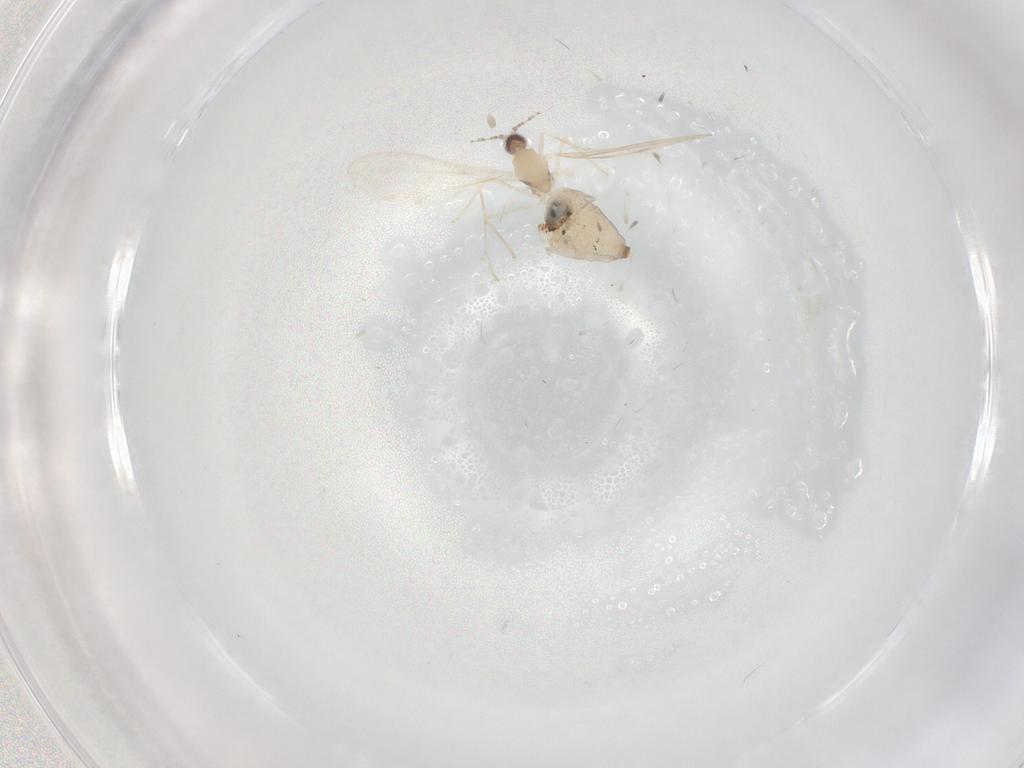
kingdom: Animalia
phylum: Arthropoda
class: Insecta
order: Diptera
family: Cecidomyiidae
